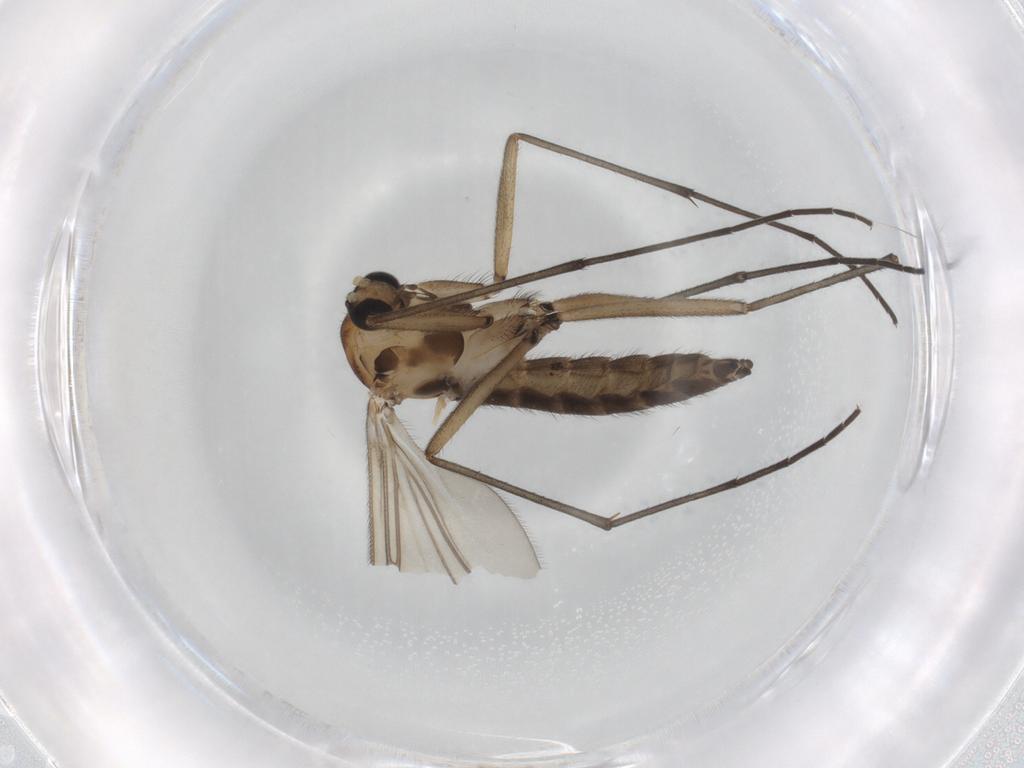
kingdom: Animalia
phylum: Arthropoda
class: Insecta
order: Diptera
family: Sciaridae
